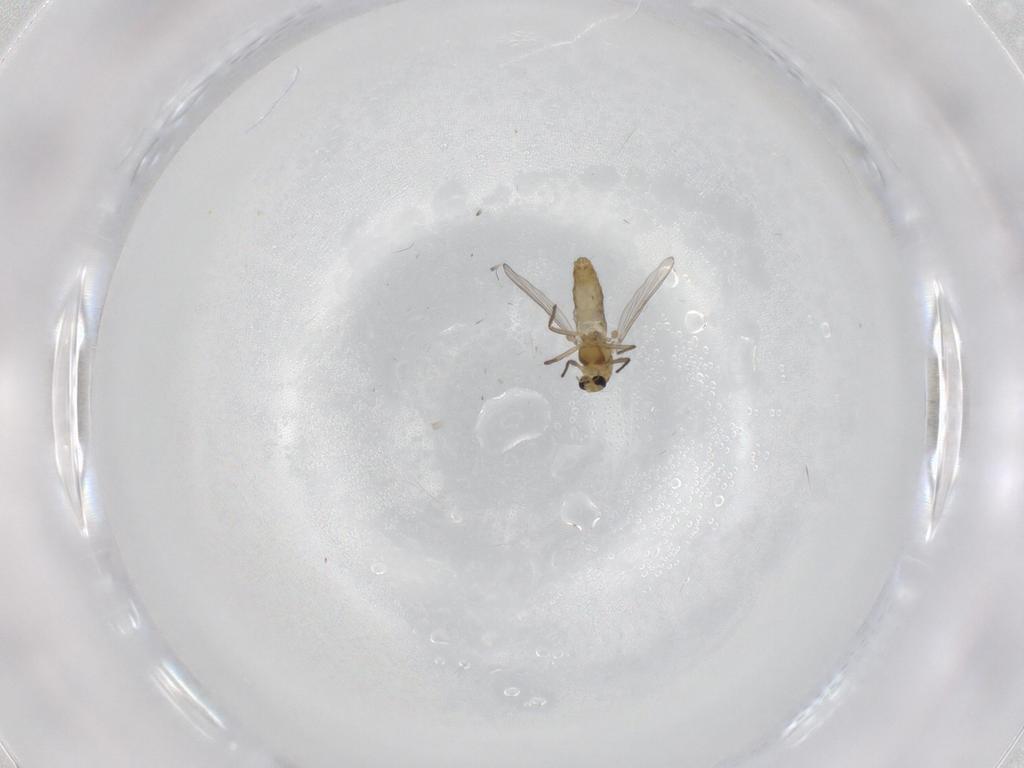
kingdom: Animalia
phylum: Arthropoda
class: Insecta
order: Diptera
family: Chironomidae
